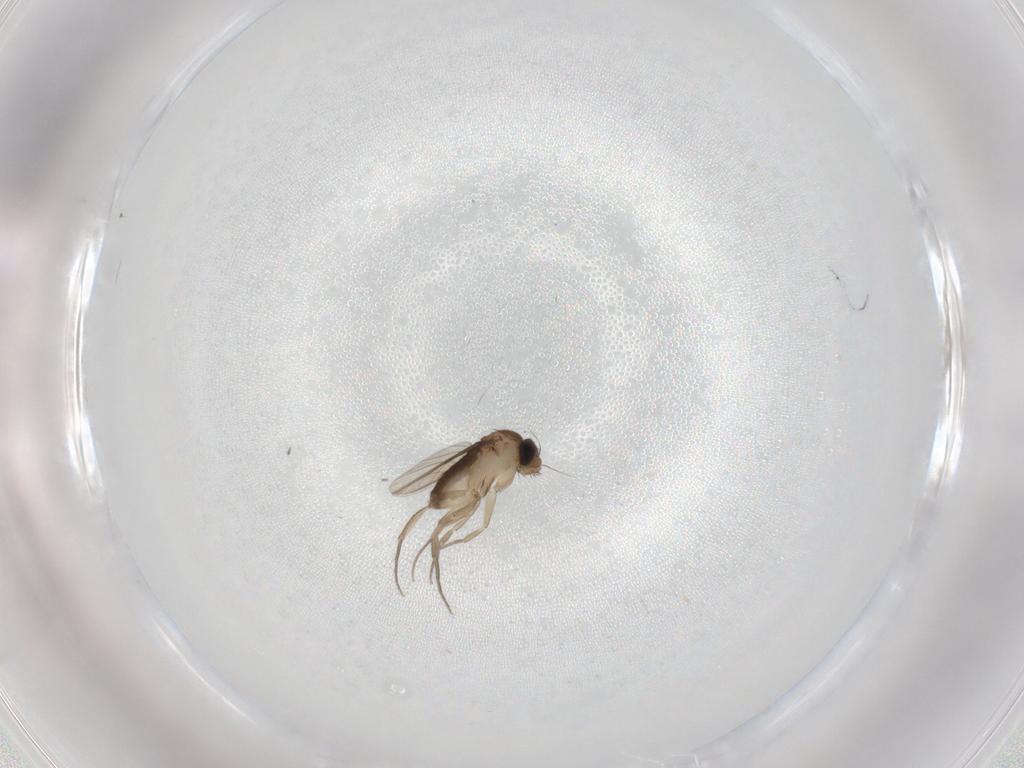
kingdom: Animalia
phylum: Arthropoda
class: Insecta
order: Diptera
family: Phoridae
